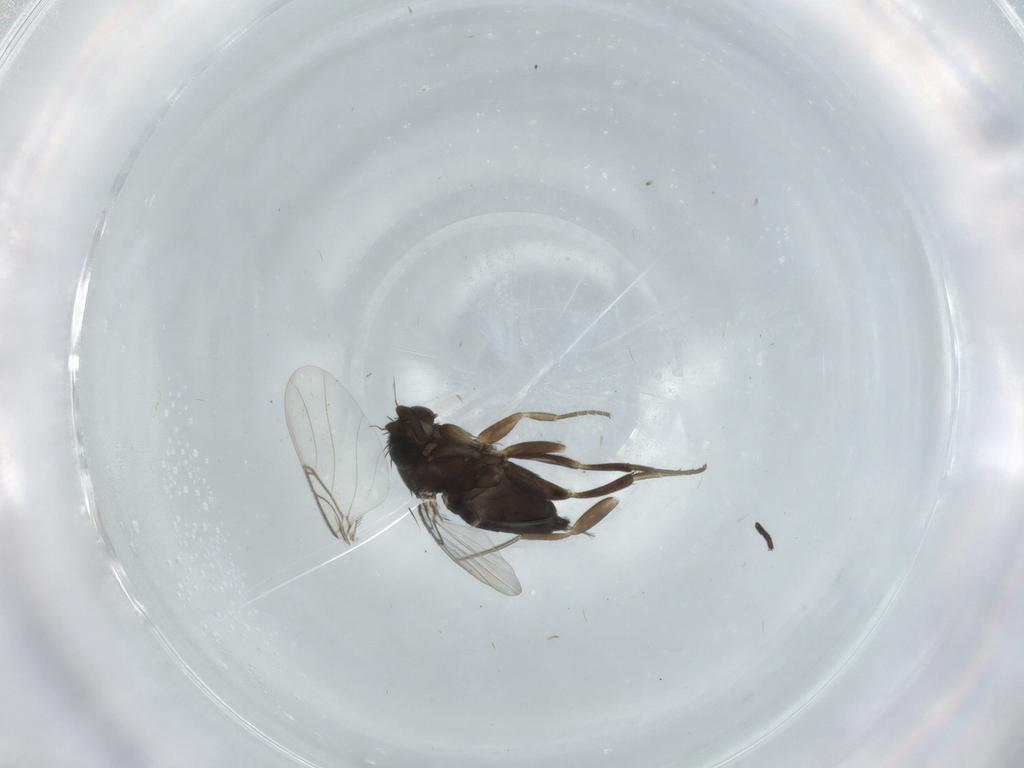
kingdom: Animalia
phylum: Arthropoda
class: Insecta
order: Diptera
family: Phoridae
